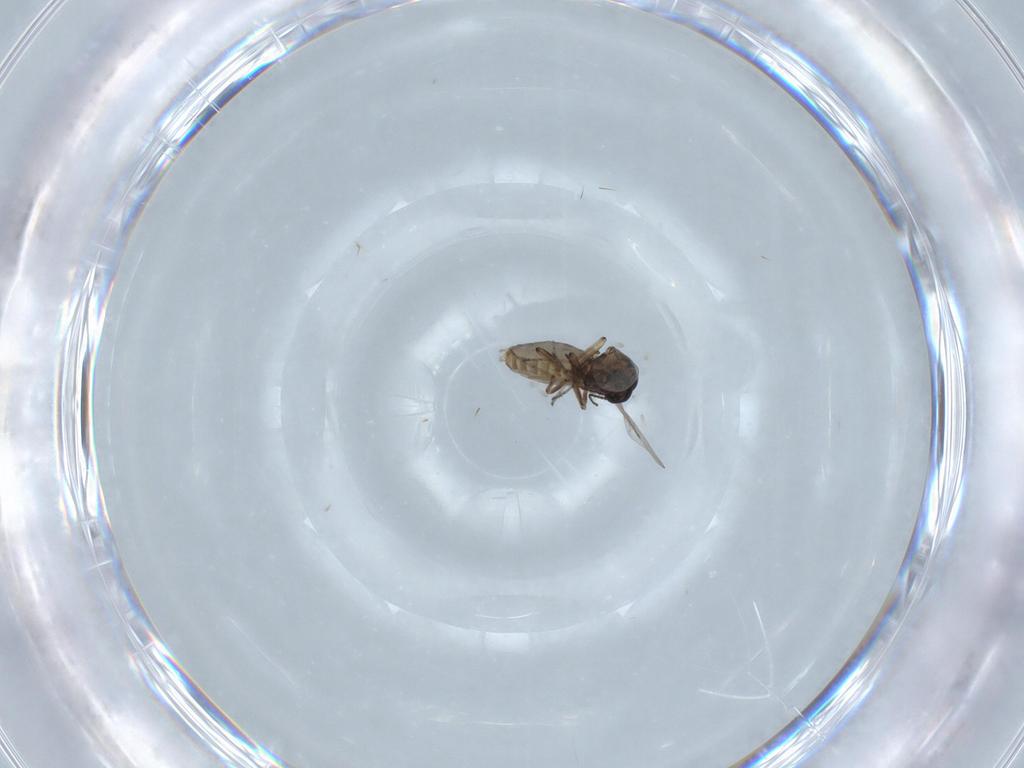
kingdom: Animalia
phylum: Arthropoda
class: Insecta
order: Diptera
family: Ceratopogonidae
